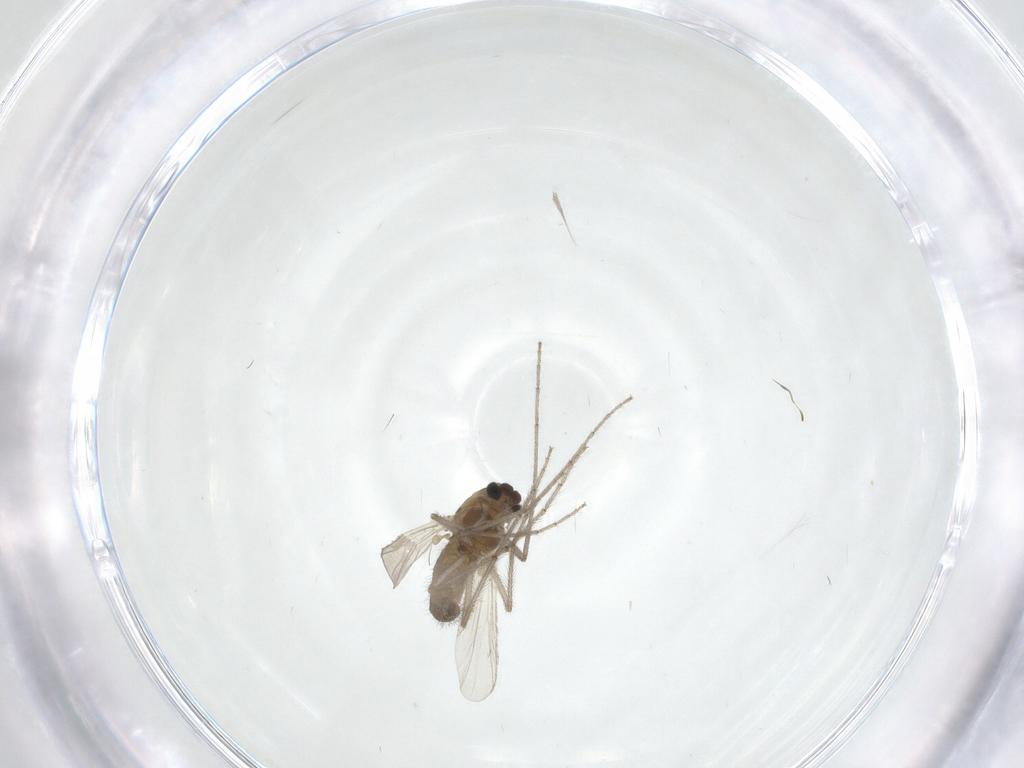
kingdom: Animalia
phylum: Arthropoda
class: Insecta
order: Diptera
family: Chironomidae
